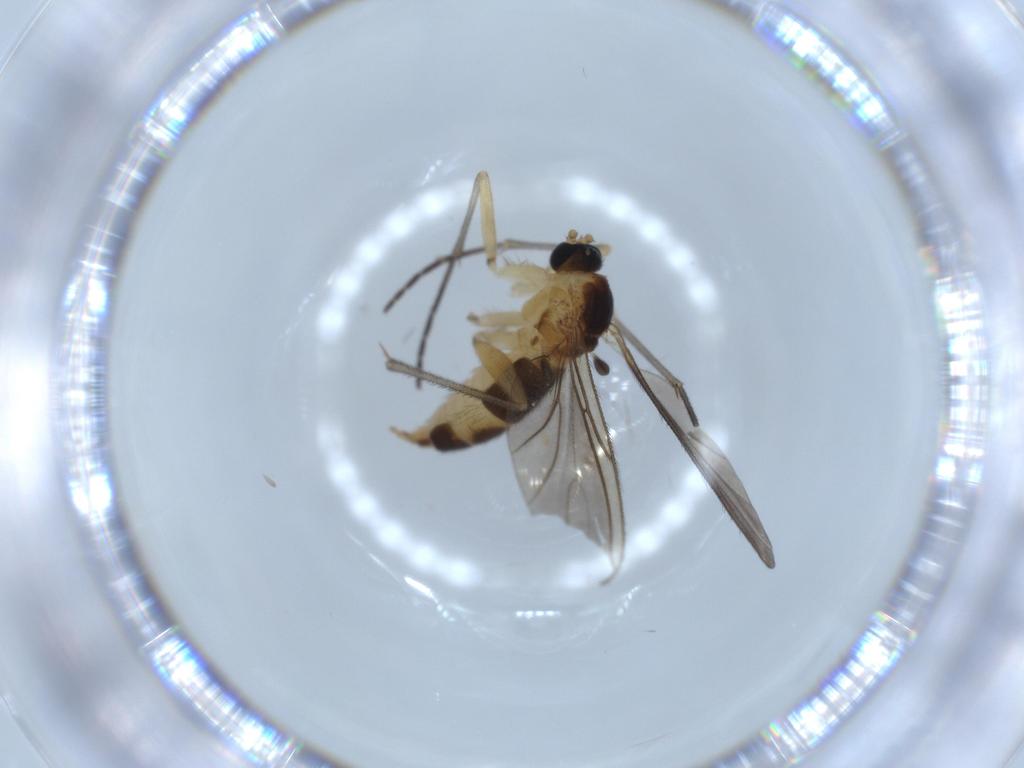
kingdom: Animalia
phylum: Arthropoda
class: Insecta
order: Diptera
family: Sciaridae
